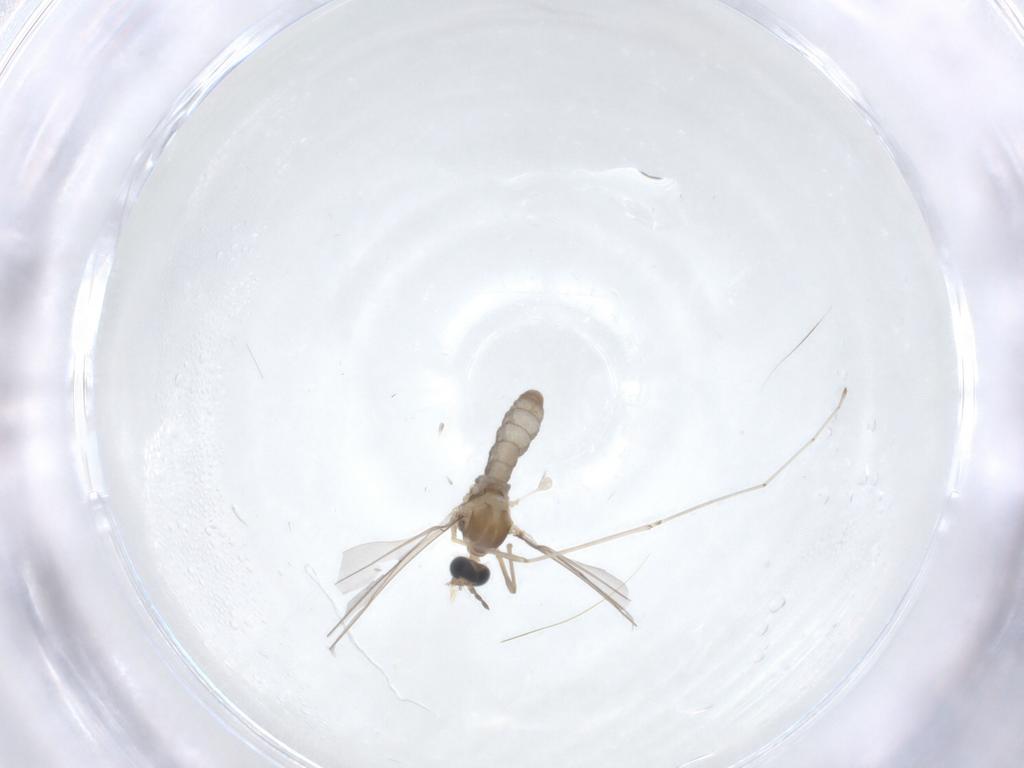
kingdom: Animalia
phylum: Arthropoda
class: Insecta
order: Diptera
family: Cecidomyiidae
